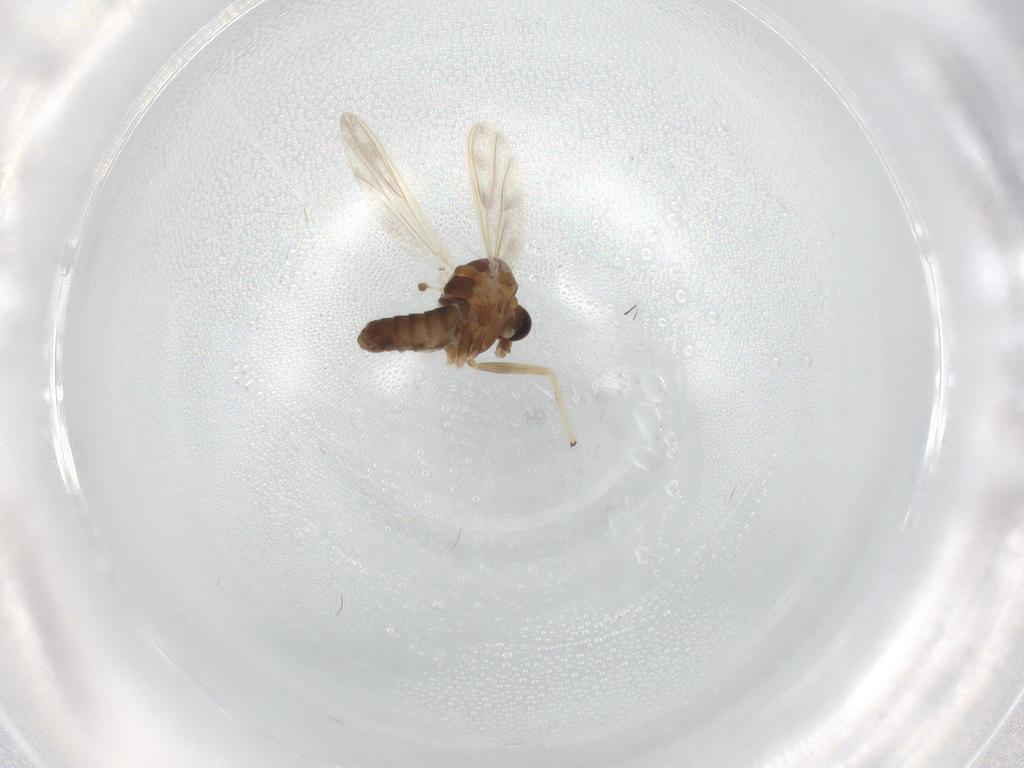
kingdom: Animalia
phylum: Arthropoda
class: Insecta
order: Diptera
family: Chironomidae
